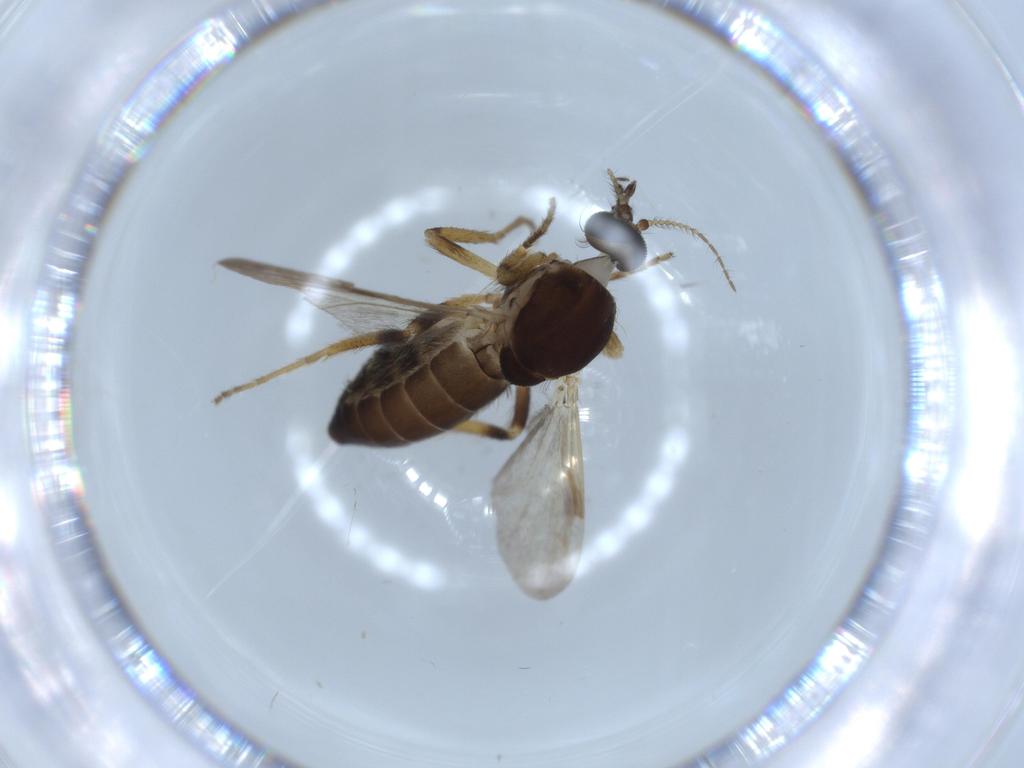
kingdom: Animalia
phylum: Arthropoda
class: Insecta
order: Diptera
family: Ceratopogonidae
